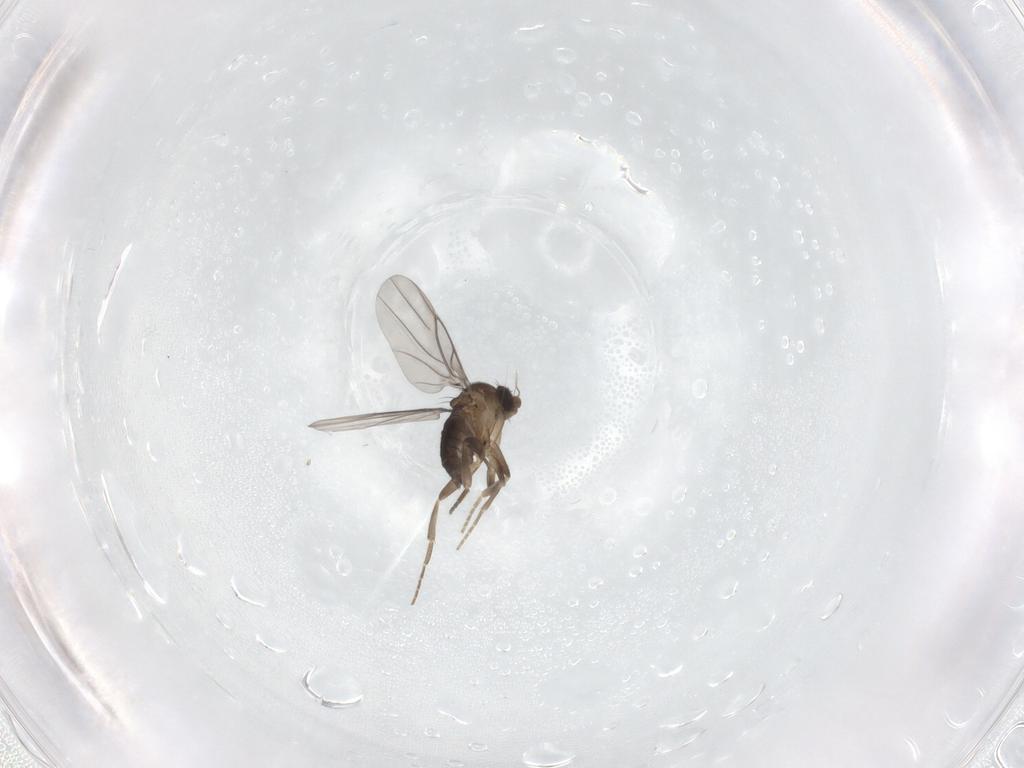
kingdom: Animalia
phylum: Arthropoda
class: Insecta
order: Diptera
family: Phoridae
